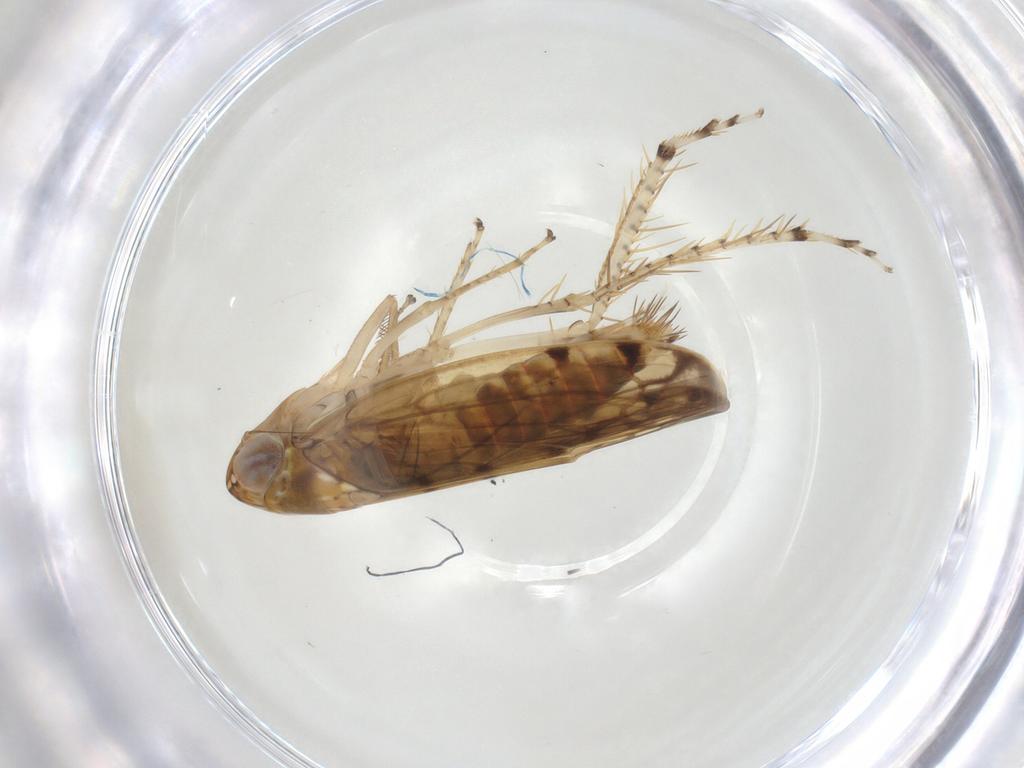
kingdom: Animalia
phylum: Arthropoda
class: Insecta
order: Hemiptera
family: Cicadellidae
